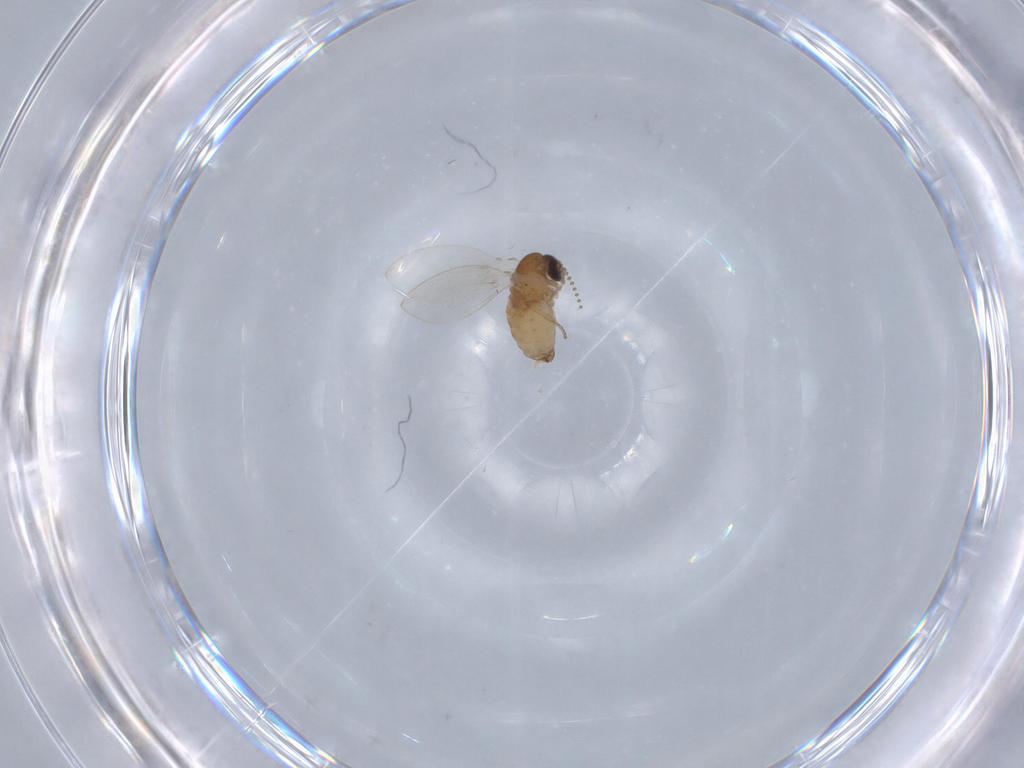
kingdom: Animalia
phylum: Arthropoda
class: Insecta
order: Diptera
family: Psychodidae
